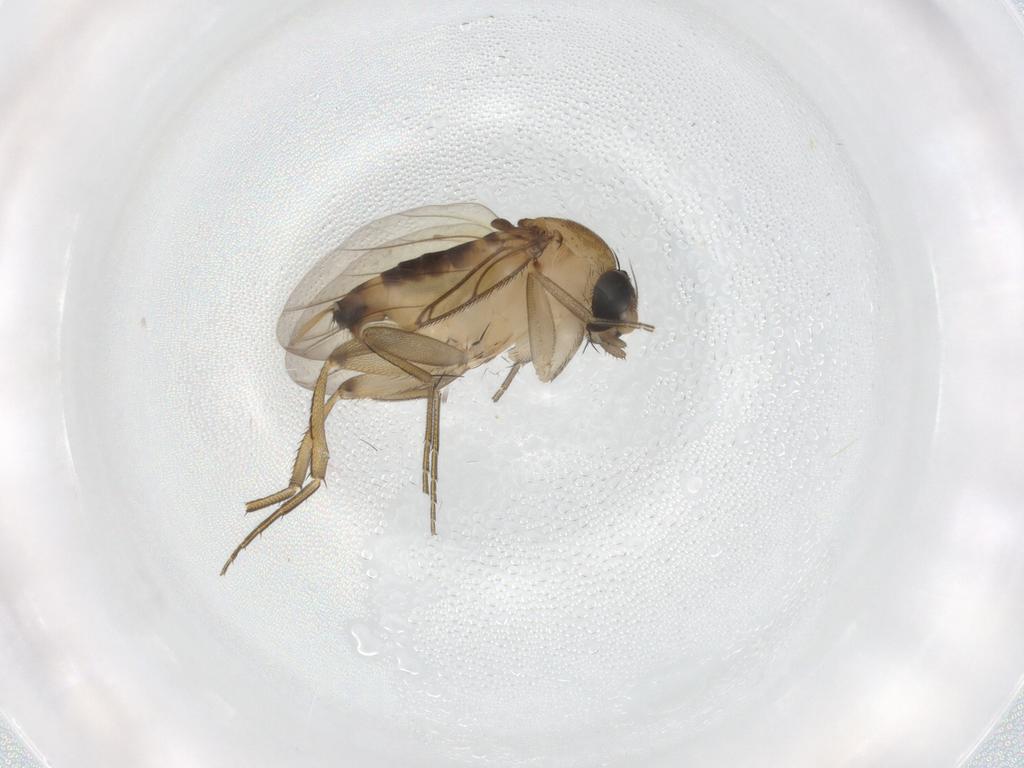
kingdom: Animalia
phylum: Arthropoda
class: Insecta
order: Diptera
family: Phoridae
